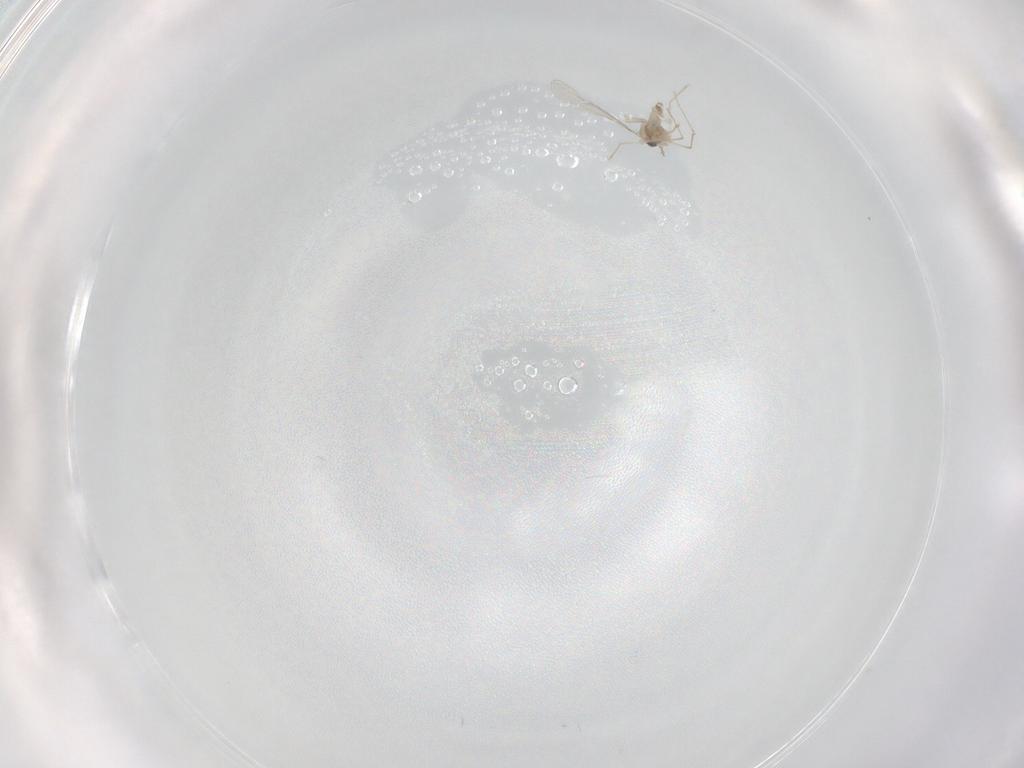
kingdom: Animalia
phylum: Arthropoda
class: Insecta
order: Diptera
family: Cecidomyiidae
